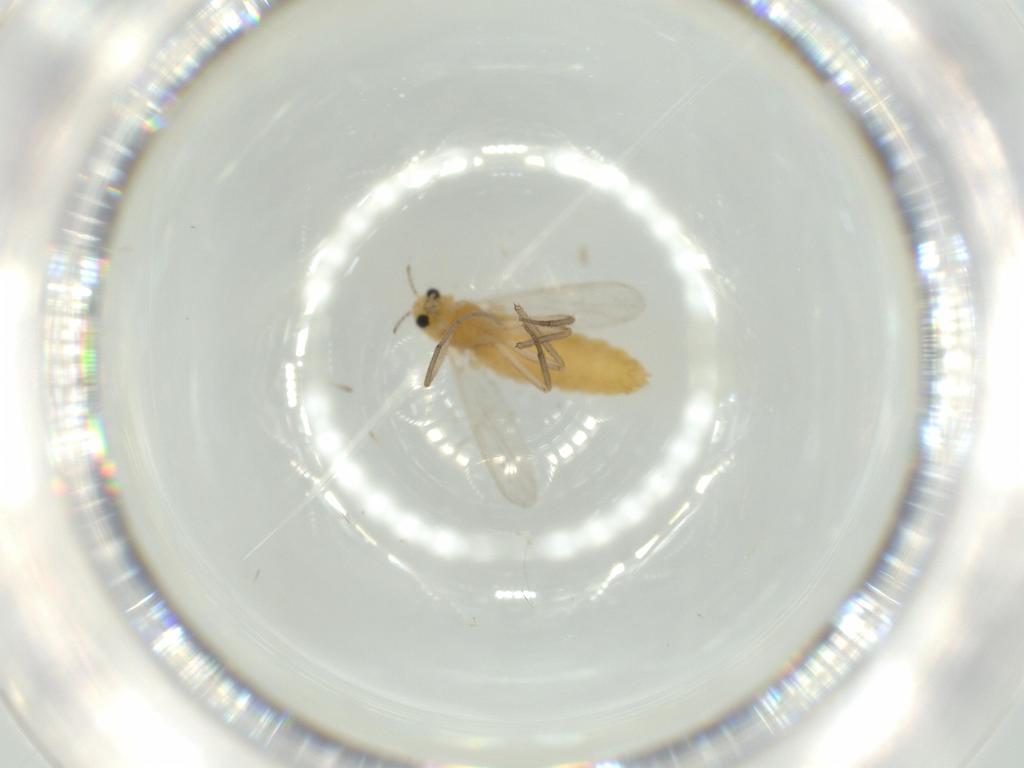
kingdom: Animalia
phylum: Arthropoda
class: Insecta
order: Diptera
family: Chironomidae
